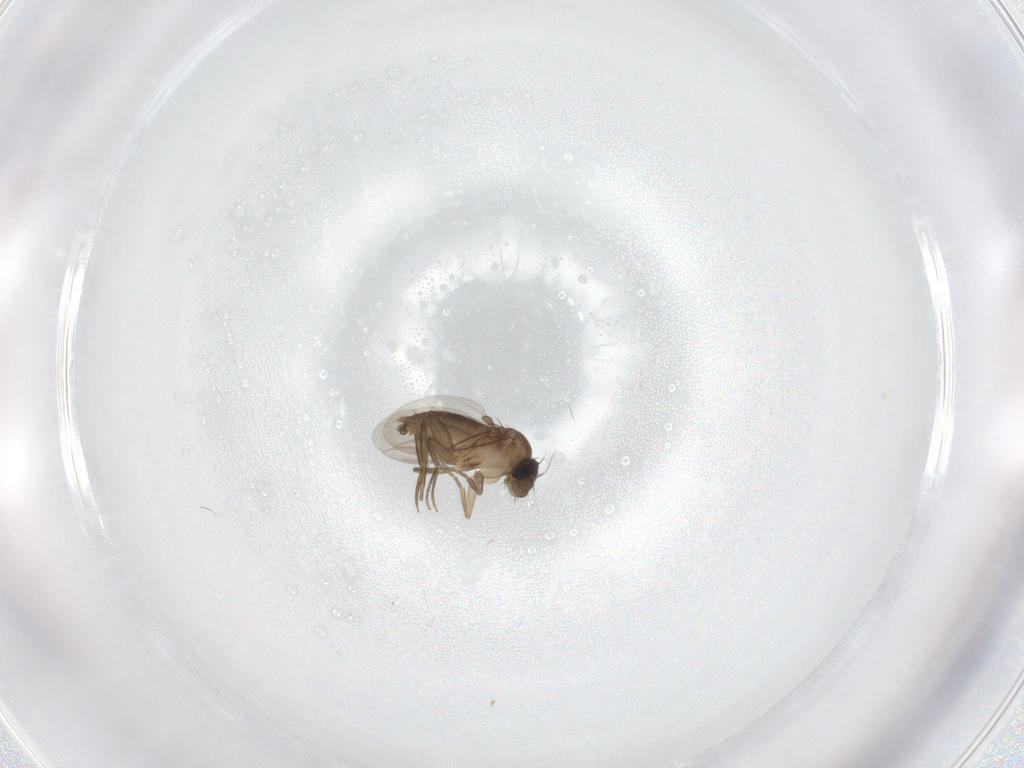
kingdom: Animalia
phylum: Arthropoda
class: Insecta
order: Diptera
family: Phoridae
